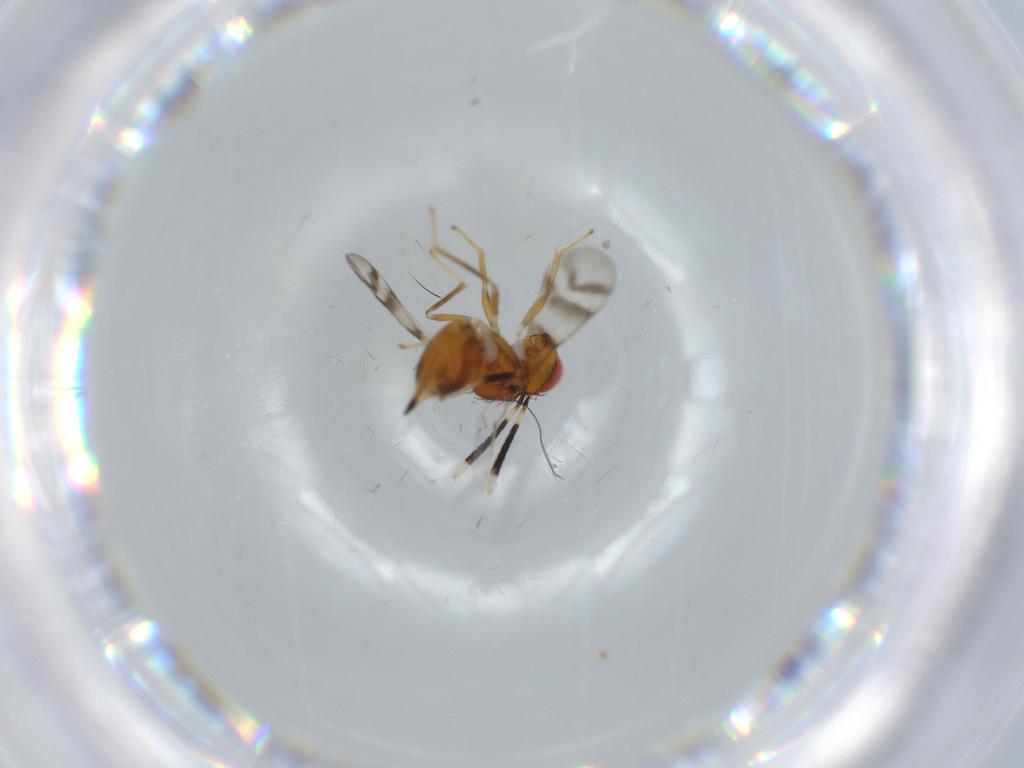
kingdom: Animalia
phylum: Arthropoda
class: Insecta
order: Hymenoptera
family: Diparidae
